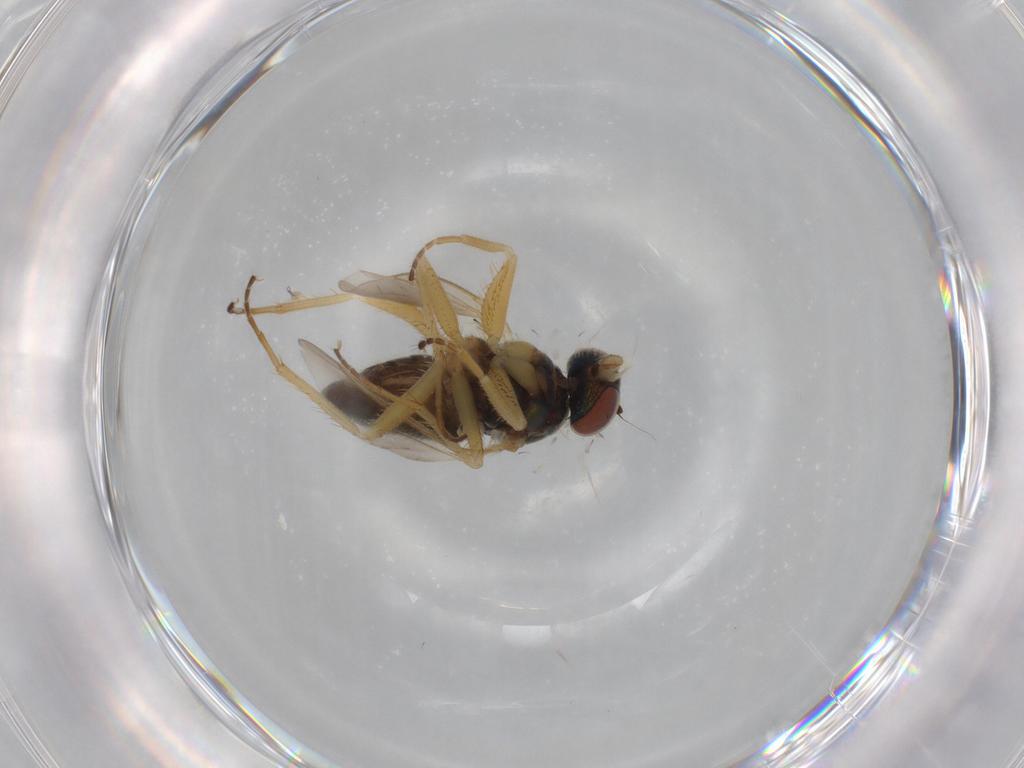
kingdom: Animalia
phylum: Arthropoda
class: Insecta
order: Diptera
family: Dolichopodidae
